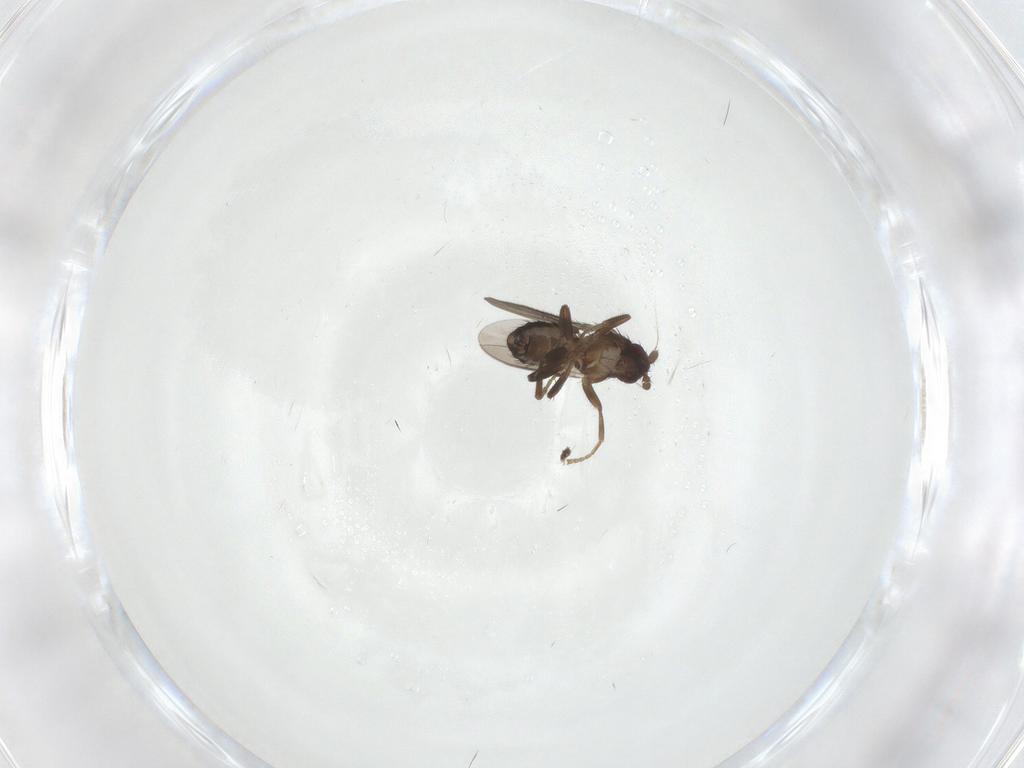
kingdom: Animalia
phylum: Arthropoda
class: Insecta
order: Diptera
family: Sphaeroceridae
